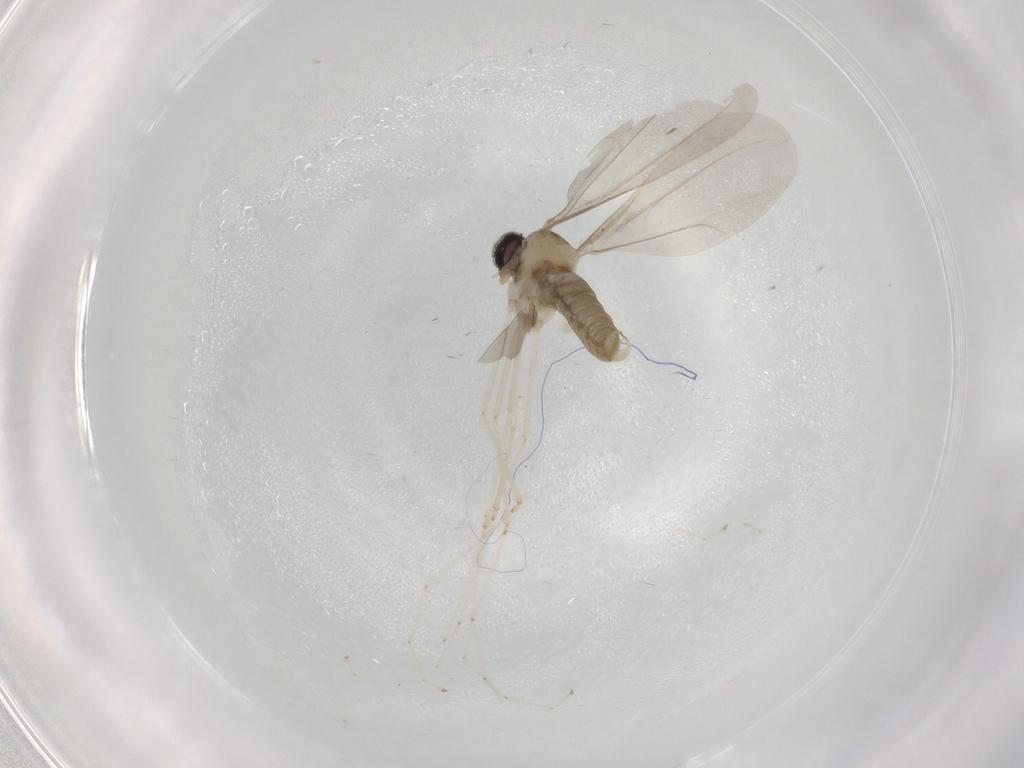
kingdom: Animalia
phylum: Arthropoda
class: Insecta
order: Diptera
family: Cecidomyiidae
